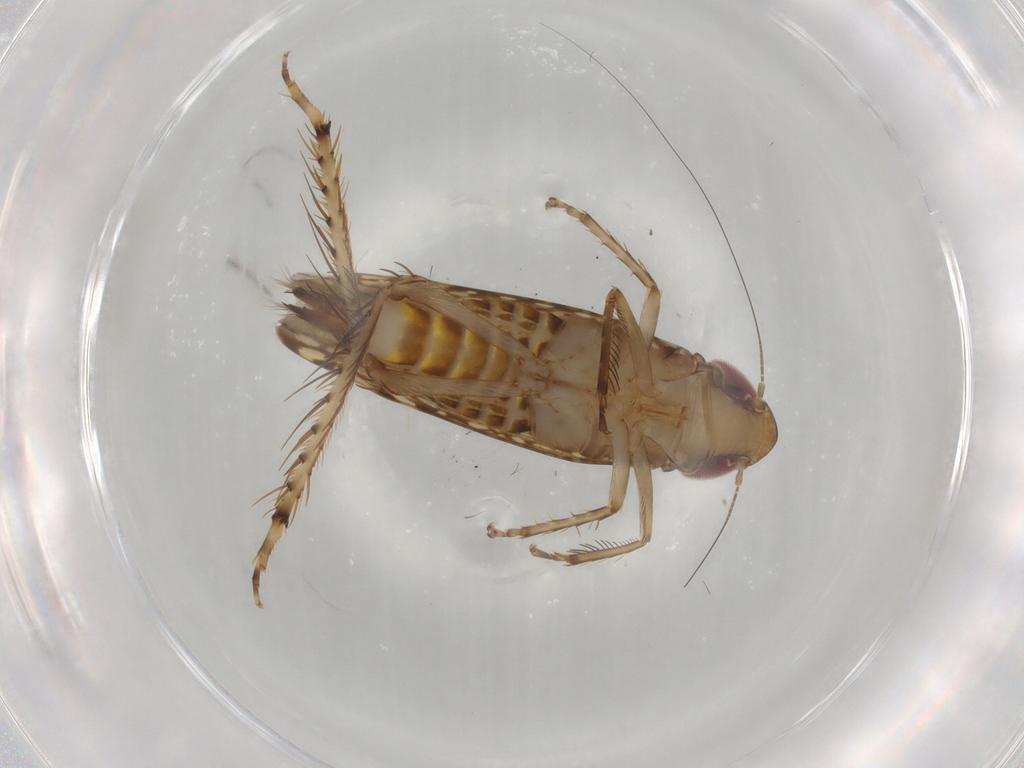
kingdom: Animalia
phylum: Arthropoda
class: Insecta
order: Hemiptera
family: Cicadellidae
